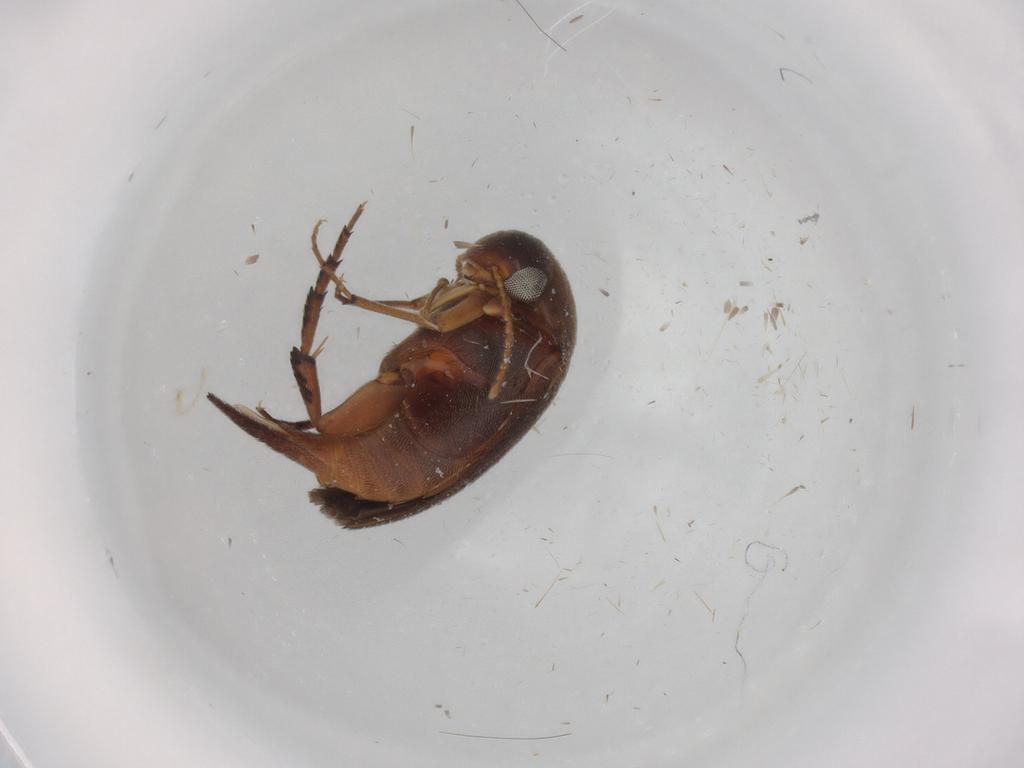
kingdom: Animalia
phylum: Arthropoda
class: Insecta
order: Coleoptera
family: Mordellidae
